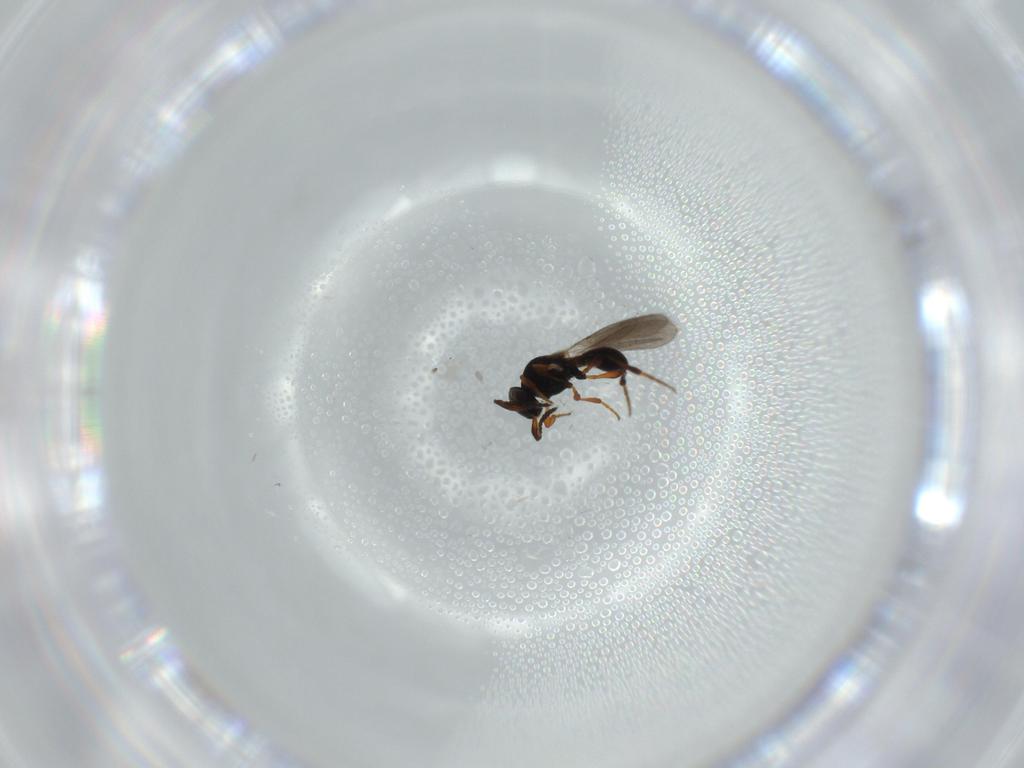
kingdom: Animalia
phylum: Arthropoda
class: Insecta
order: Hymenoptera
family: Platygastridae
